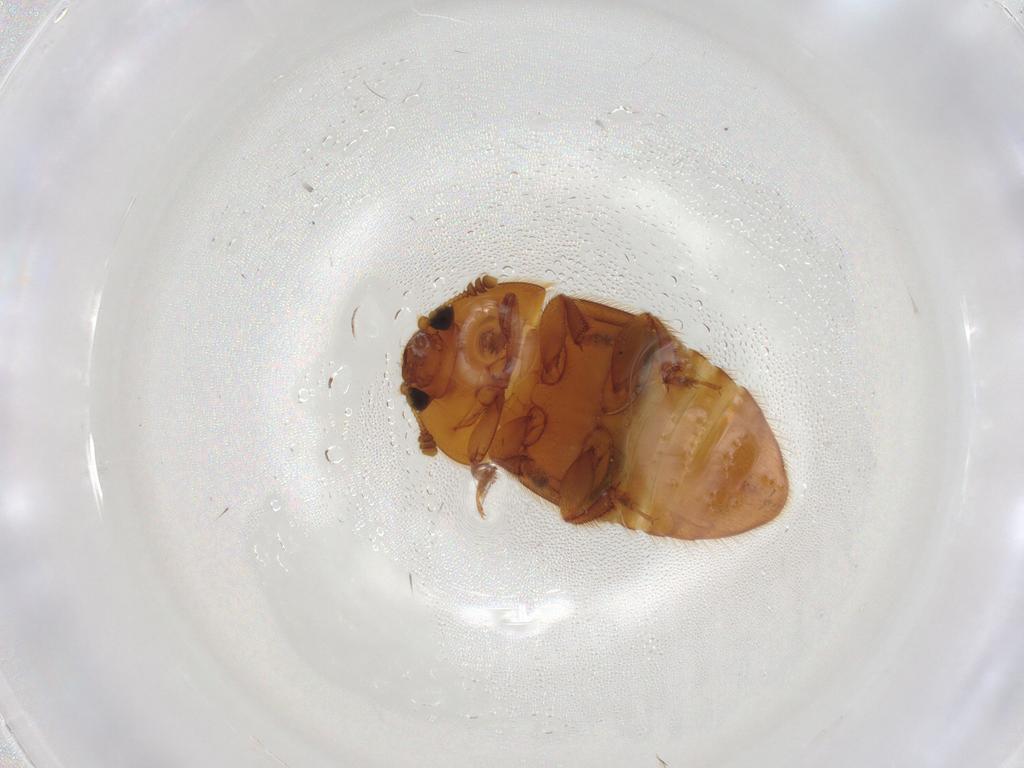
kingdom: Animalia
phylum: Arthropoda
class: Insecta
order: Coleoptera
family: Nitidulidae
